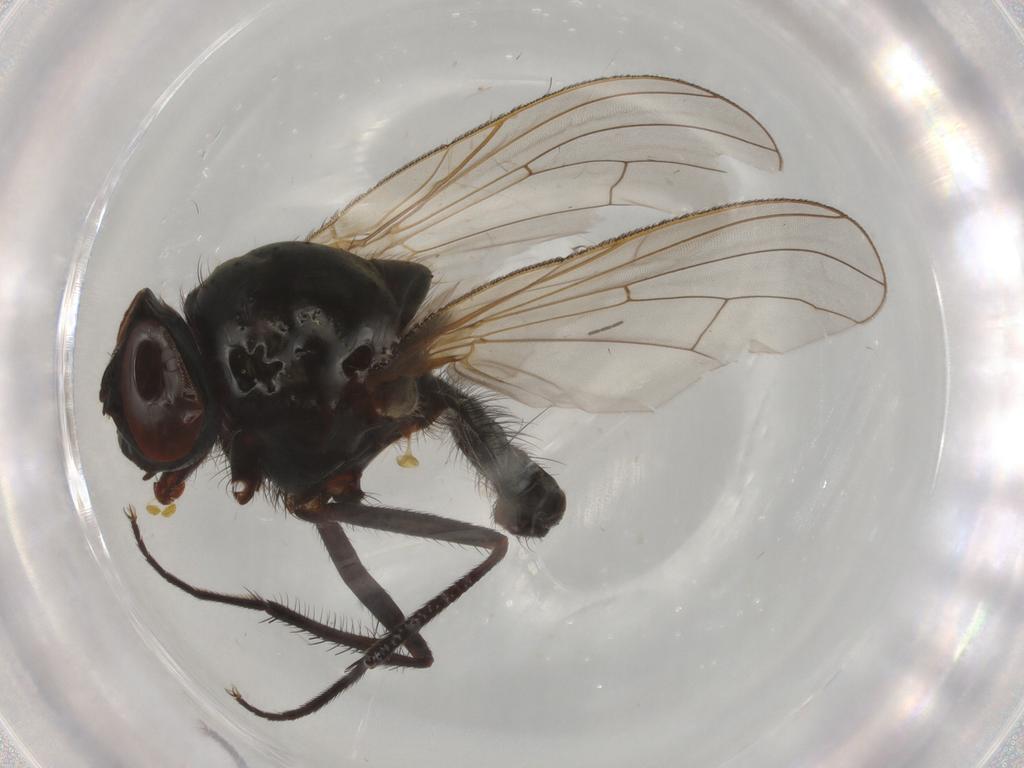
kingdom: Animalia
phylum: Arthropoda
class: Insecta
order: Diptera
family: Milichiidae
